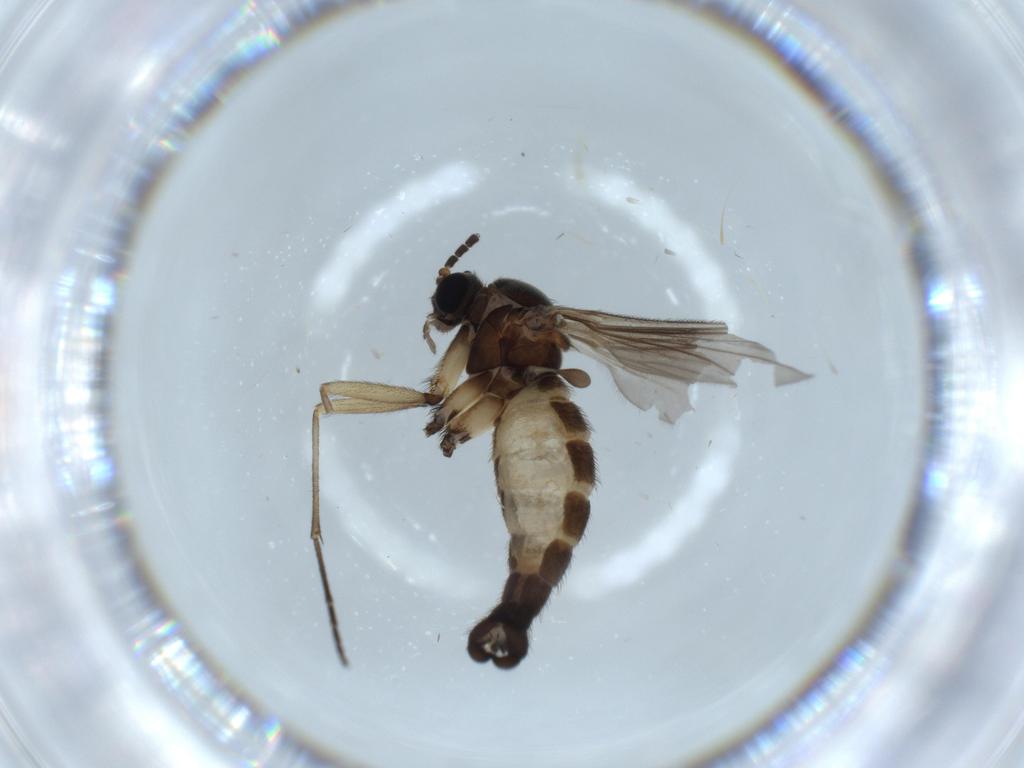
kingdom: Animalia
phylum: Arthropoda
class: Insecta
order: Diptera
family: Sciaridae
